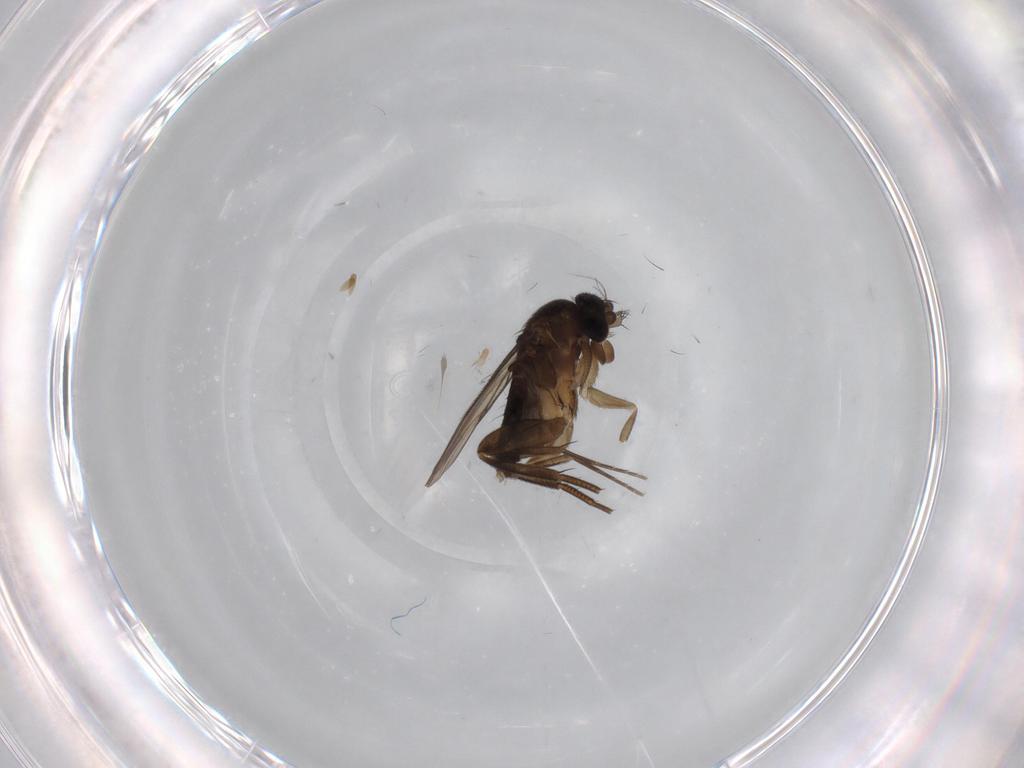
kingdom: Animalia
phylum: Arthropoda
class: Insecta
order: Diptera
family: Phoridae
